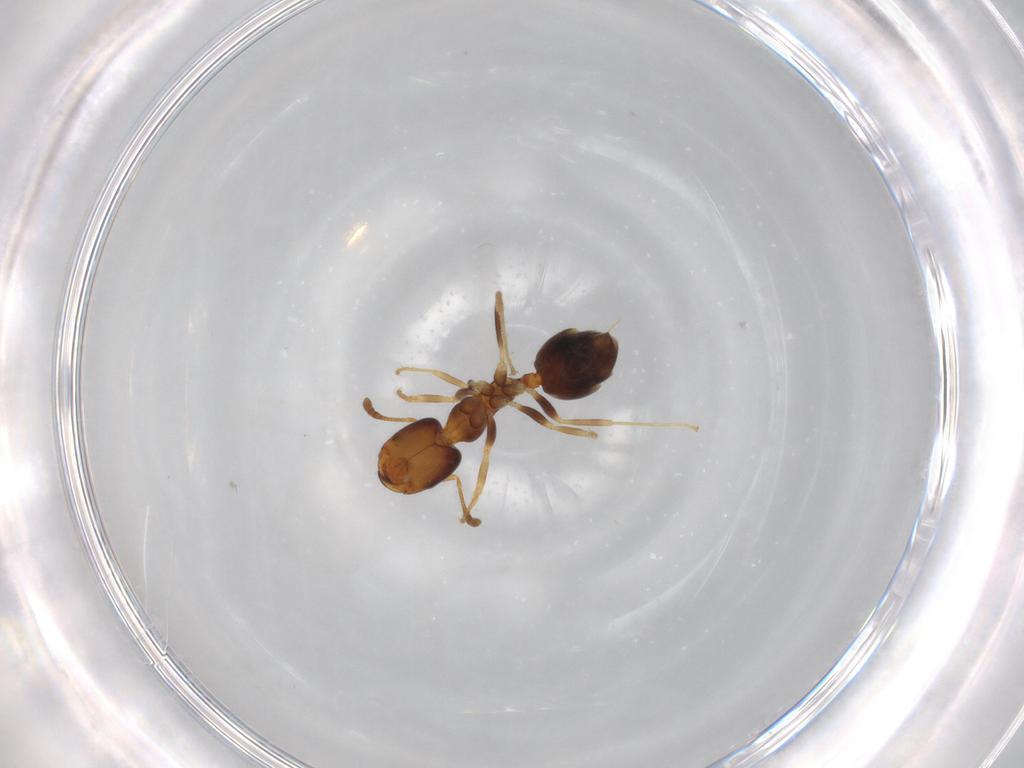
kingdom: Animalia
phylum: Arthropoda
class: Insecta
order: Hymenoptera
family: Formicidae
